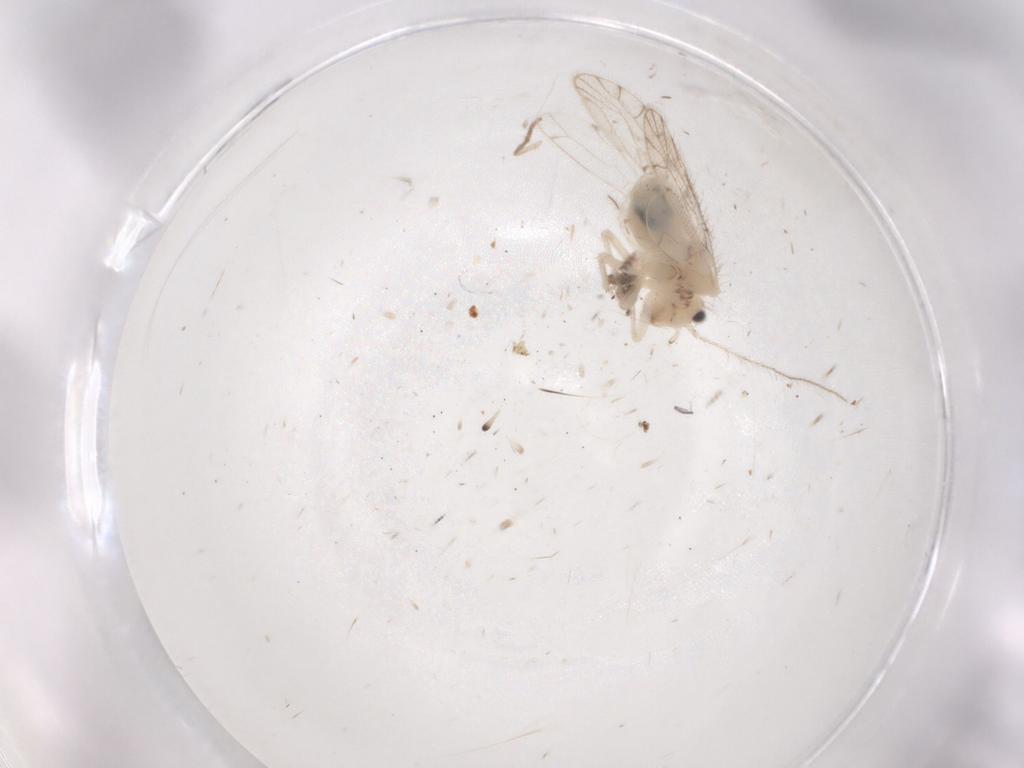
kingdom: Animalia
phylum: Arthropoda
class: Insecta
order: Psocodea
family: Trichopsocidae
